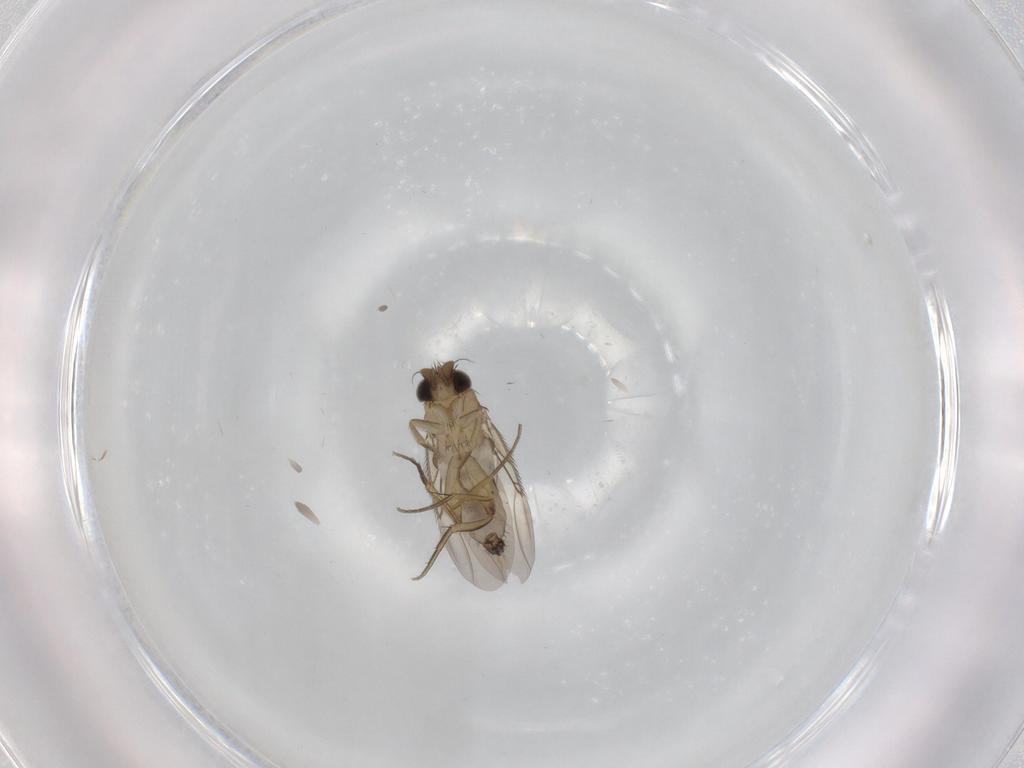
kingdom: Animalia
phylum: Arthropoda
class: Insecta
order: Diptera
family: Phoridae
